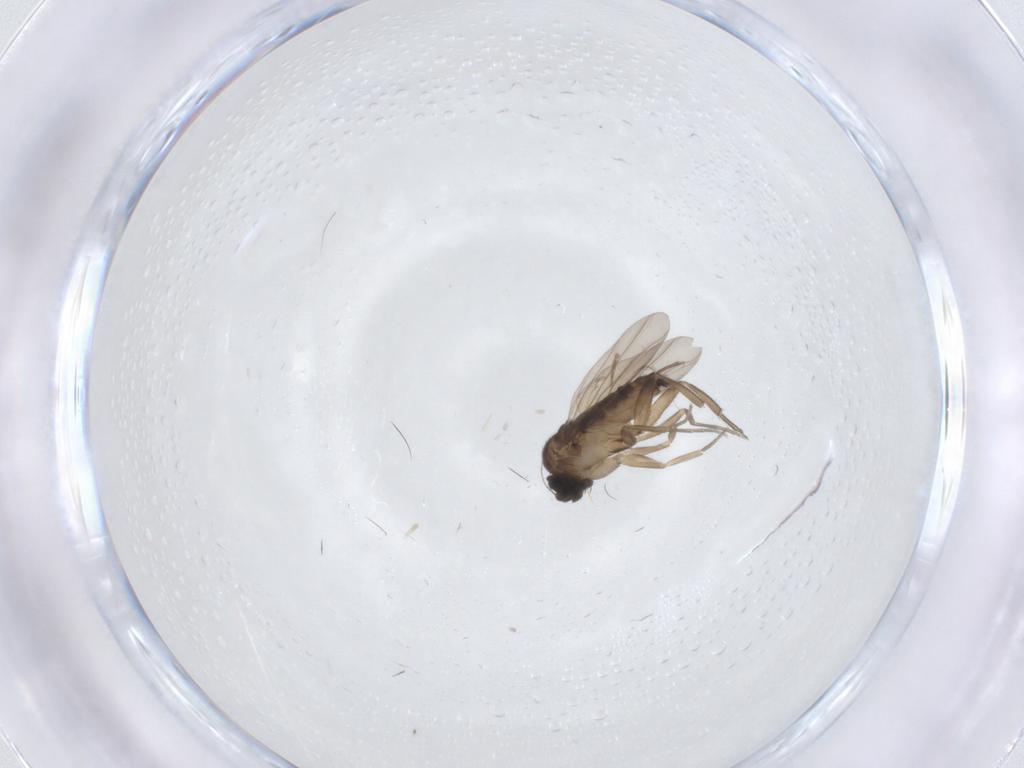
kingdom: Animalia
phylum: Arthropoda
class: Insecta
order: Diptera
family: Phoridae
